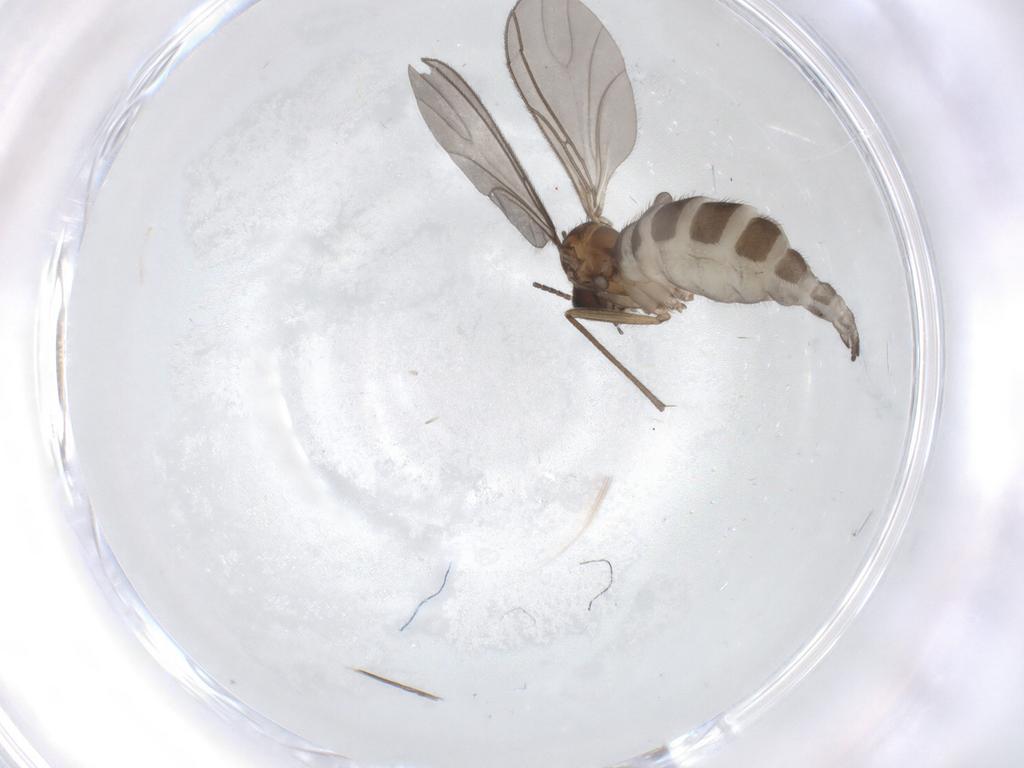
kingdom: Animalia
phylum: Arthropoda
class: Insecta
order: Diptera
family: Sciaridae
